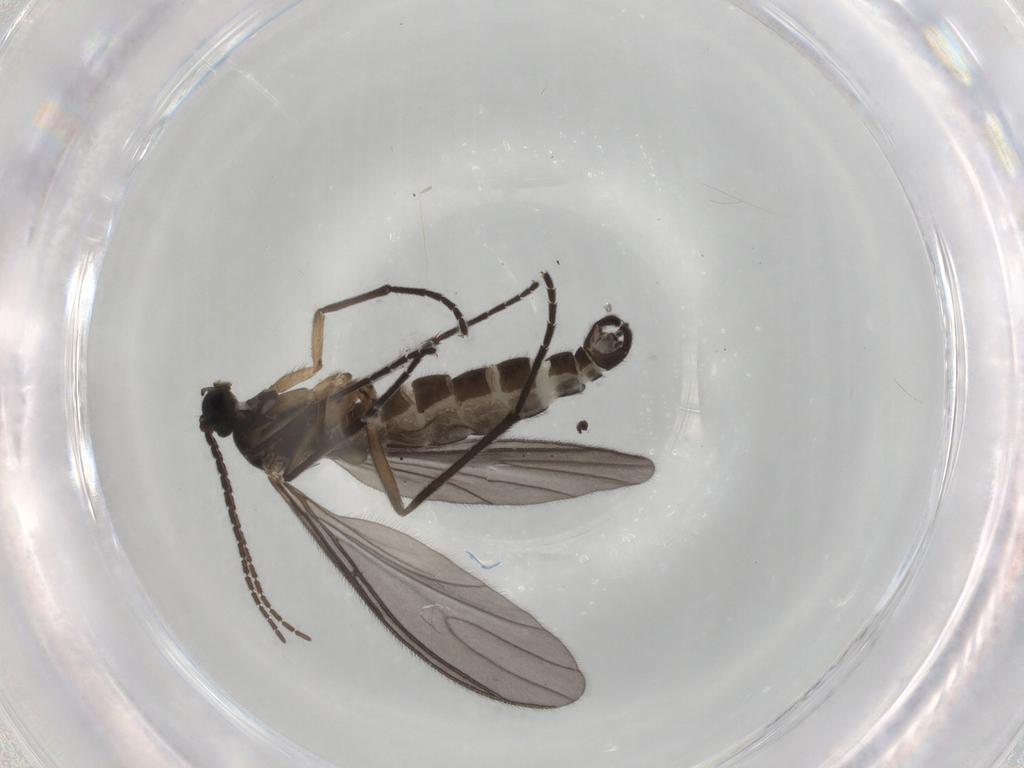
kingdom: Animalia
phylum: Arthropoda
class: Insecta
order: Diptera
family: Sciaridae
